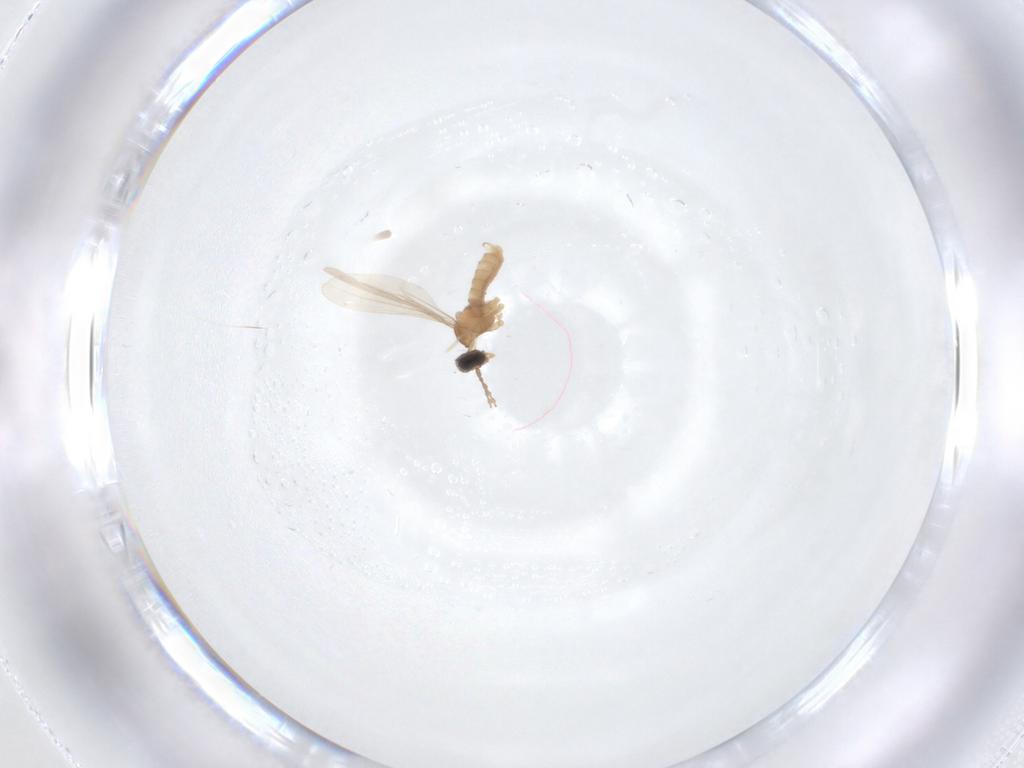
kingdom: Animalia
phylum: Arthropoda
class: Insecta
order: Diptera
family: Cecidomyiidae
